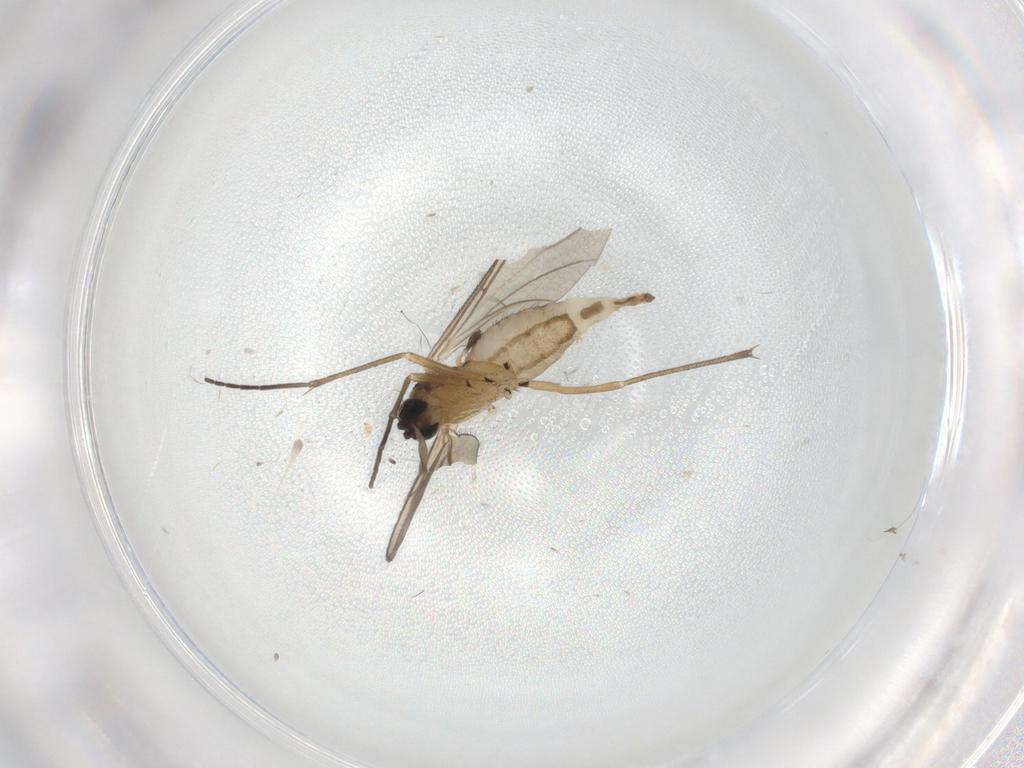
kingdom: Animalia
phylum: Arthropoda
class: Insecta
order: Diptera
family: Chironomidae
